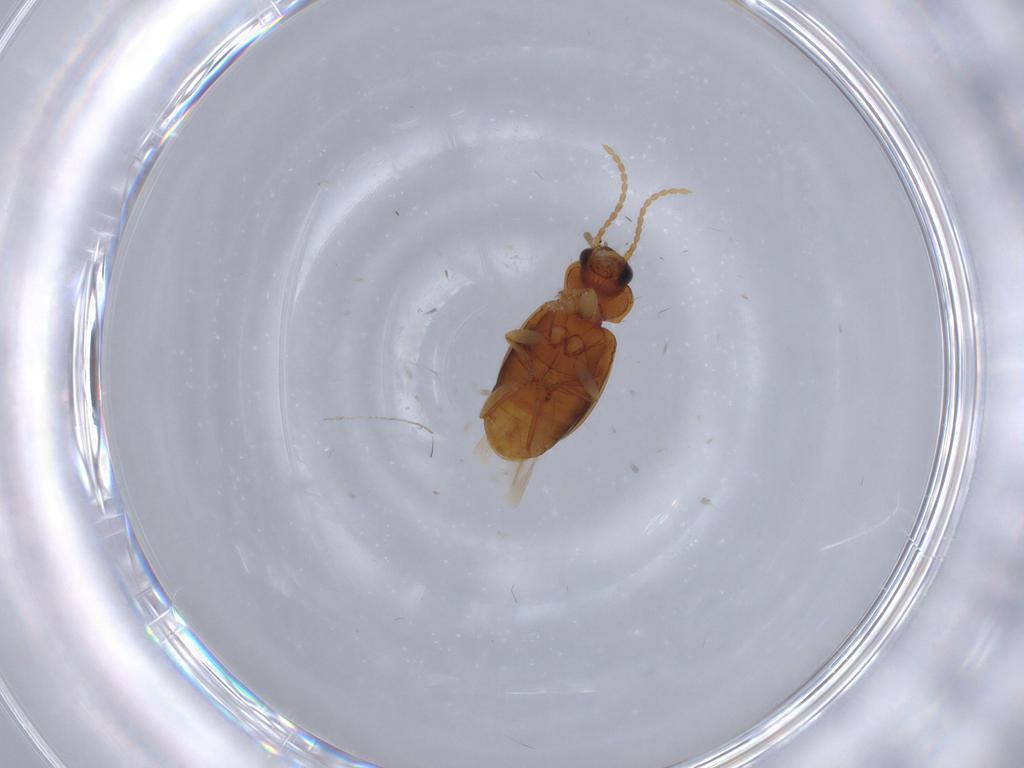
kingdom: Animalia
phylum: Arthropoda
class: Insecta
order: Coleoptera
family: Carabidae
